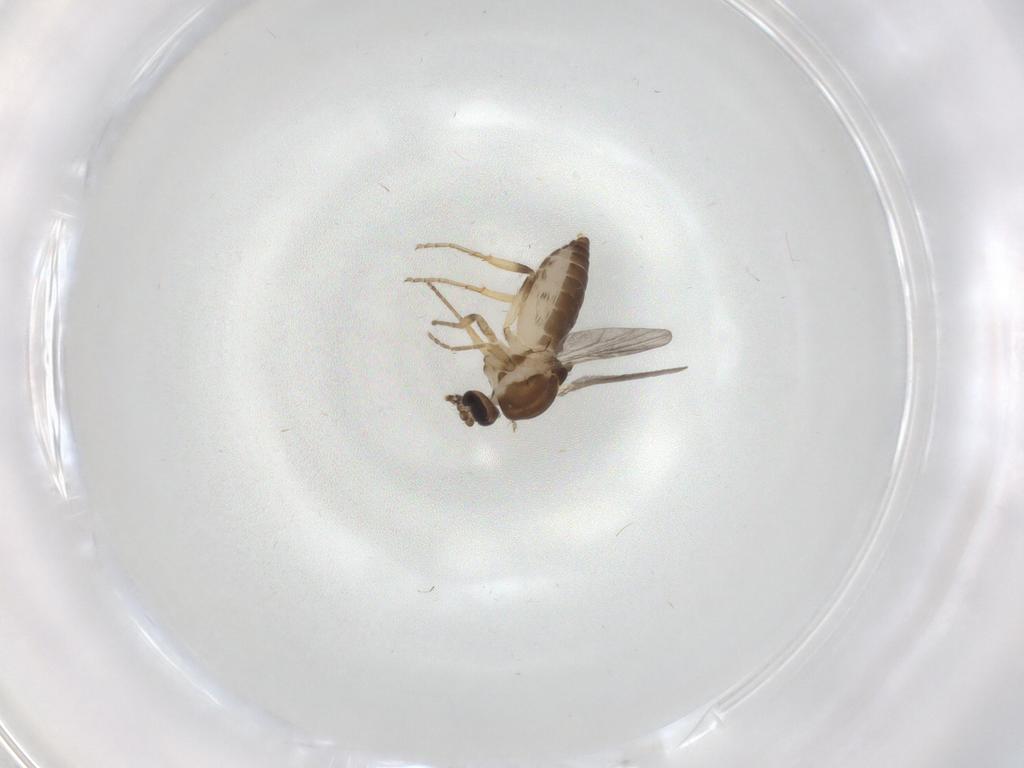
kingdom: Animalia
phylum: Arthropoda
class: Insecta
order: Diptera
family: Ceratopogonidae
